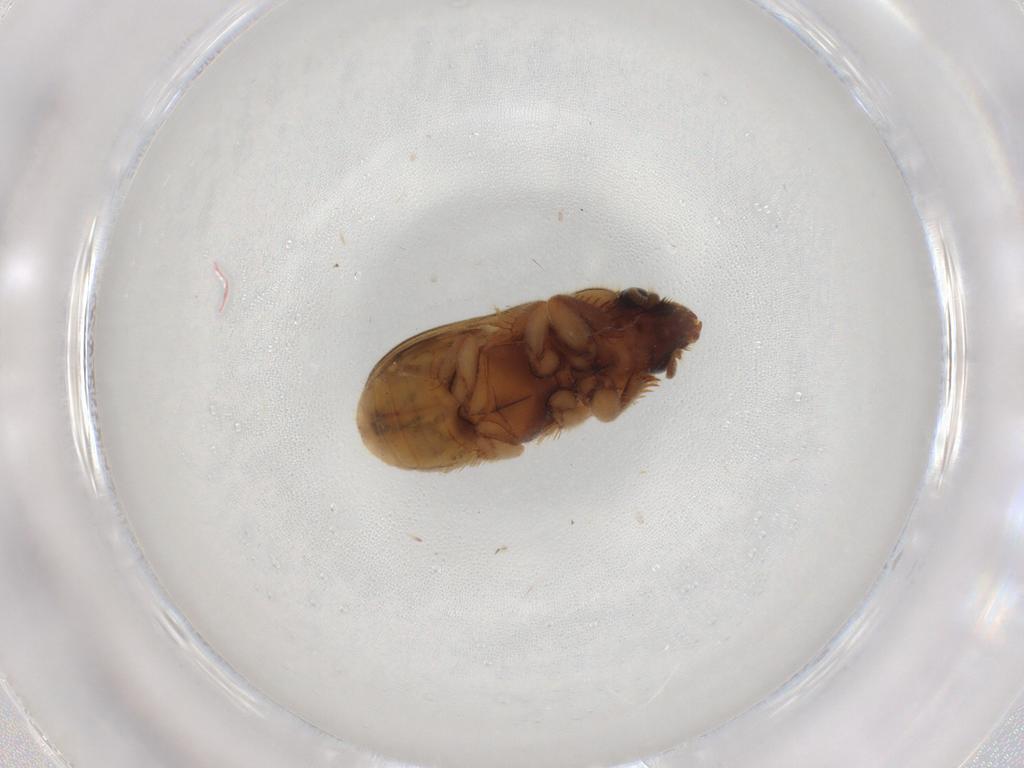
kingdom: Animalia
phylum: Arthropoda
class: Insecta
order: Coleoptera
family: Heteroceridae
